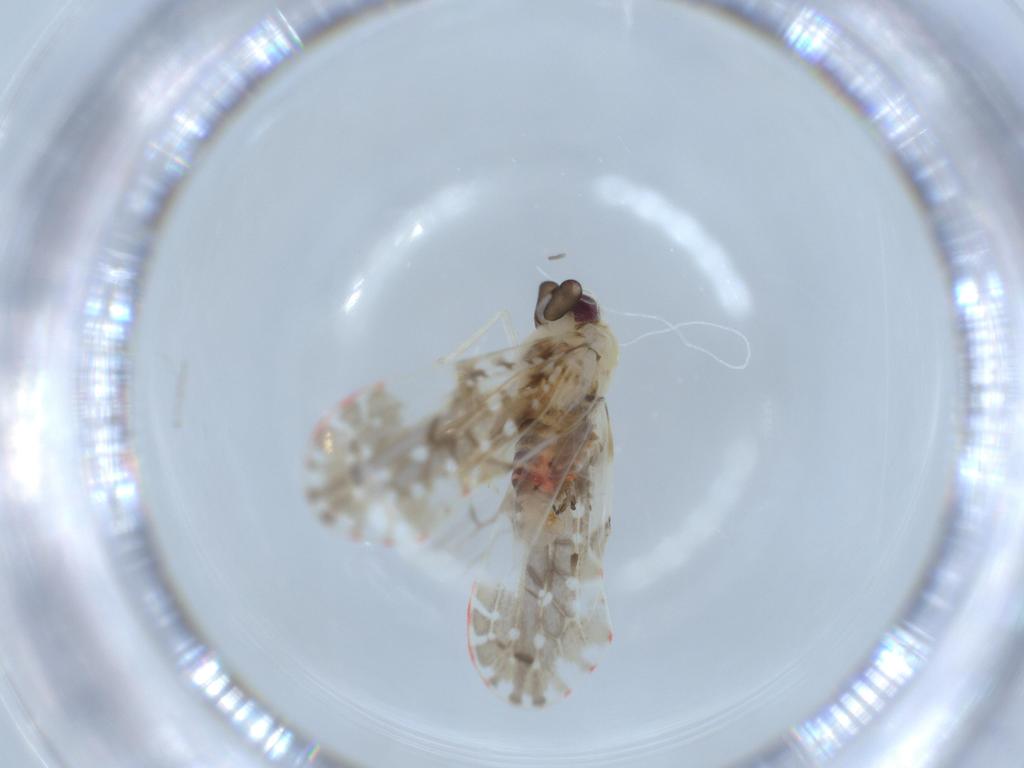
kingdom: Animalia
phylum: Arthropoda
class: Insecta
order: Hemiptera
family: Derbidae
